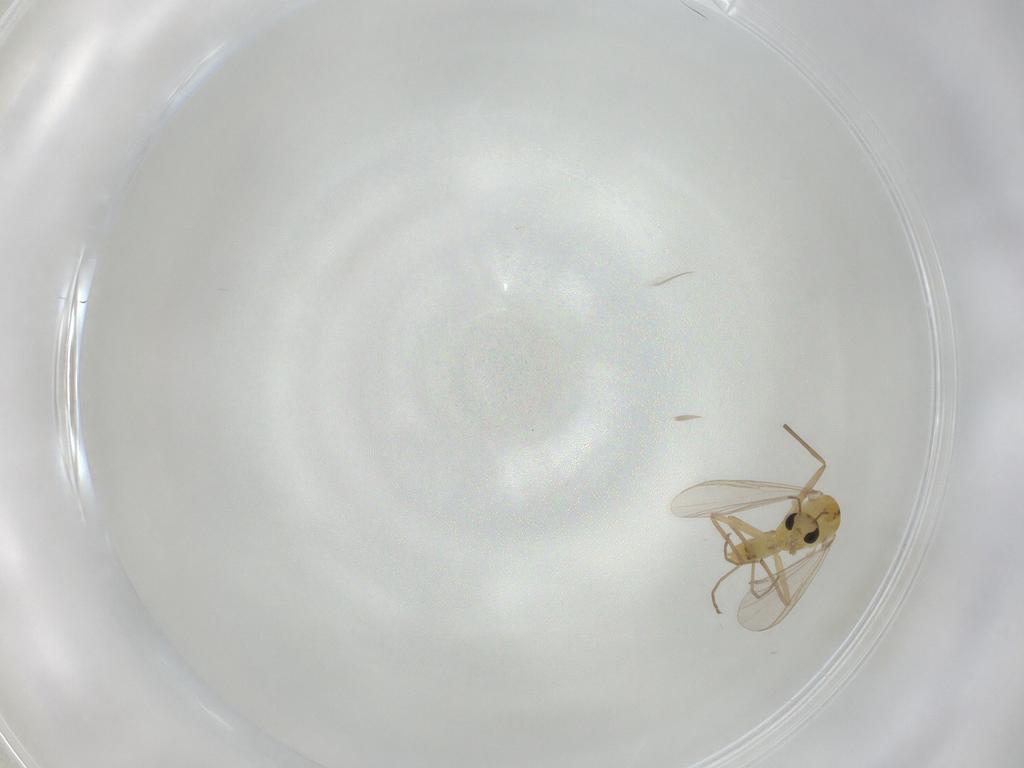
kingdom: Animalia
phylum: Arthropoda
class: Insecta
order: Diptera
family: Chironomidae
